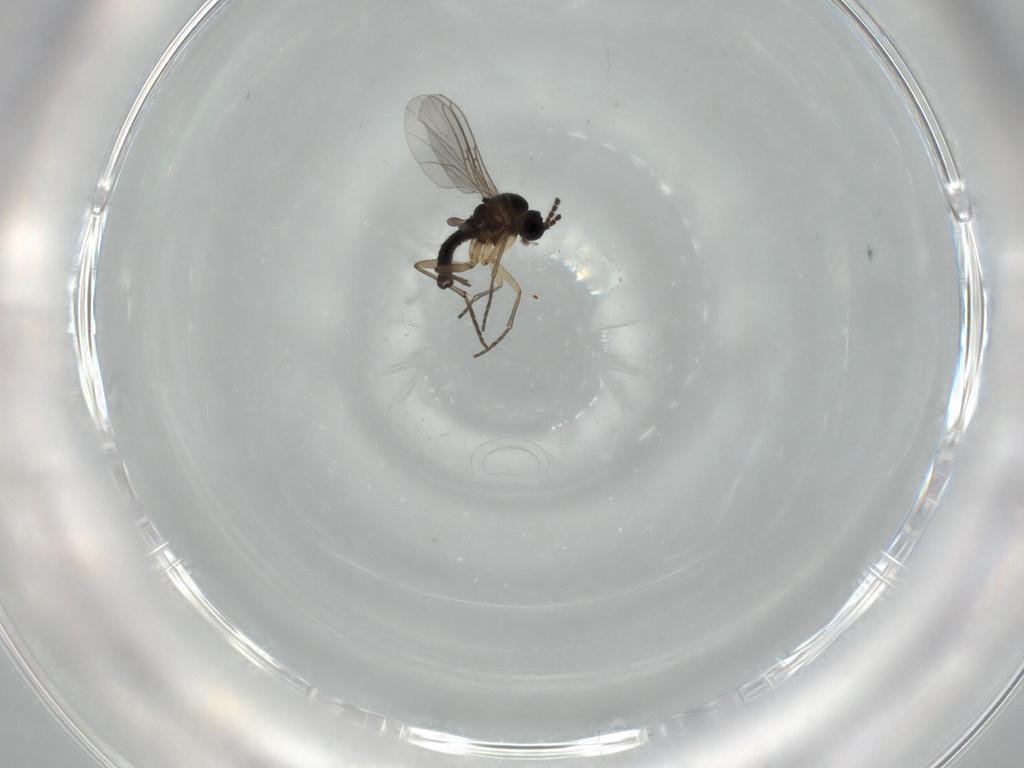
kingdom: Animalia
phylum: Arthropoda
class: Insecta
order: Diptera
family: Sciaridae
